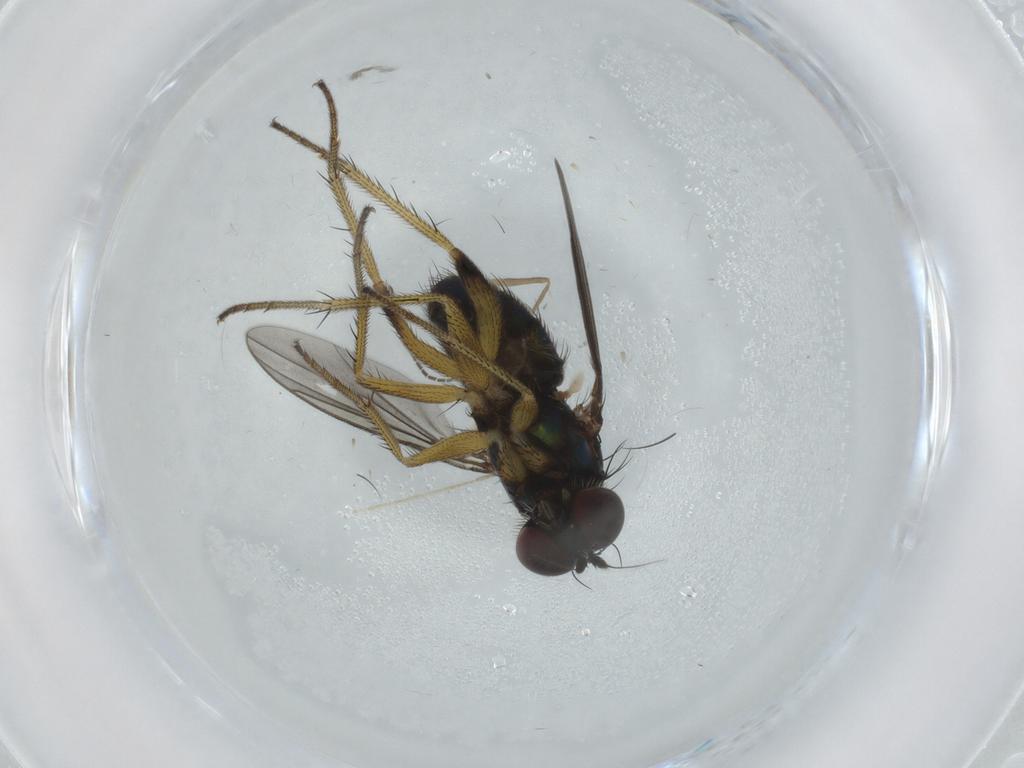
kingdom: Animalia
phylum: Arthropoda
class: Insecta
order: Diptera
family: Dolichopodidae
